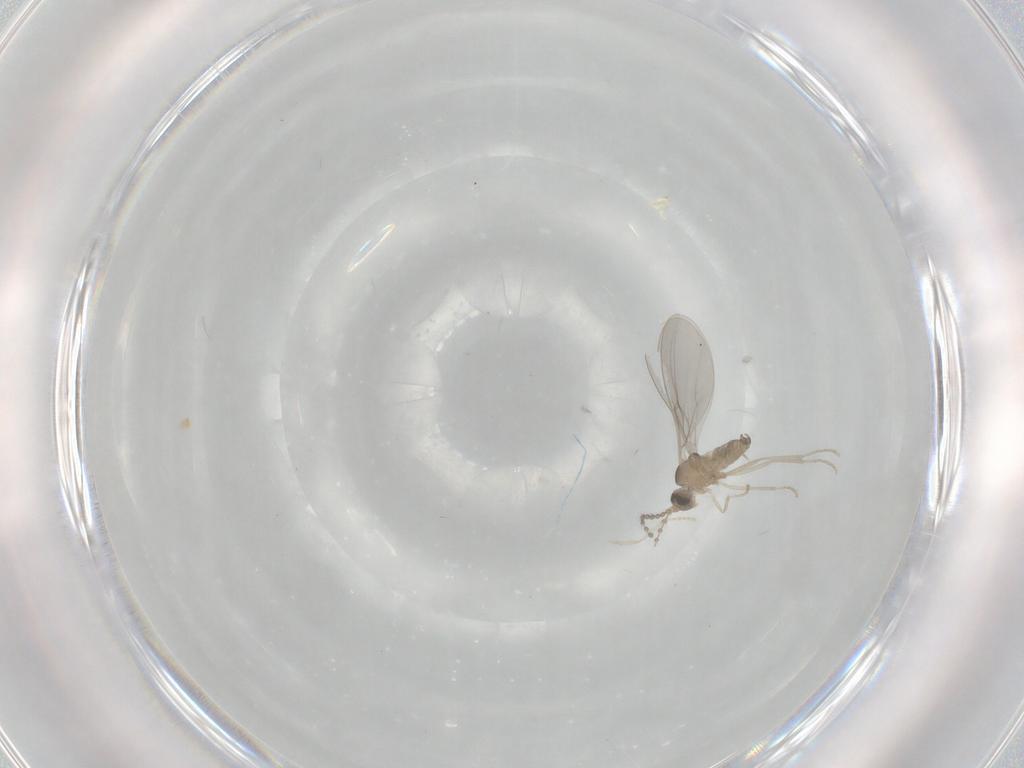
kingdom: Animalia
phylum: Arthropoda
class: Insecta
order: Diptera
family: Cecidomyiidae
